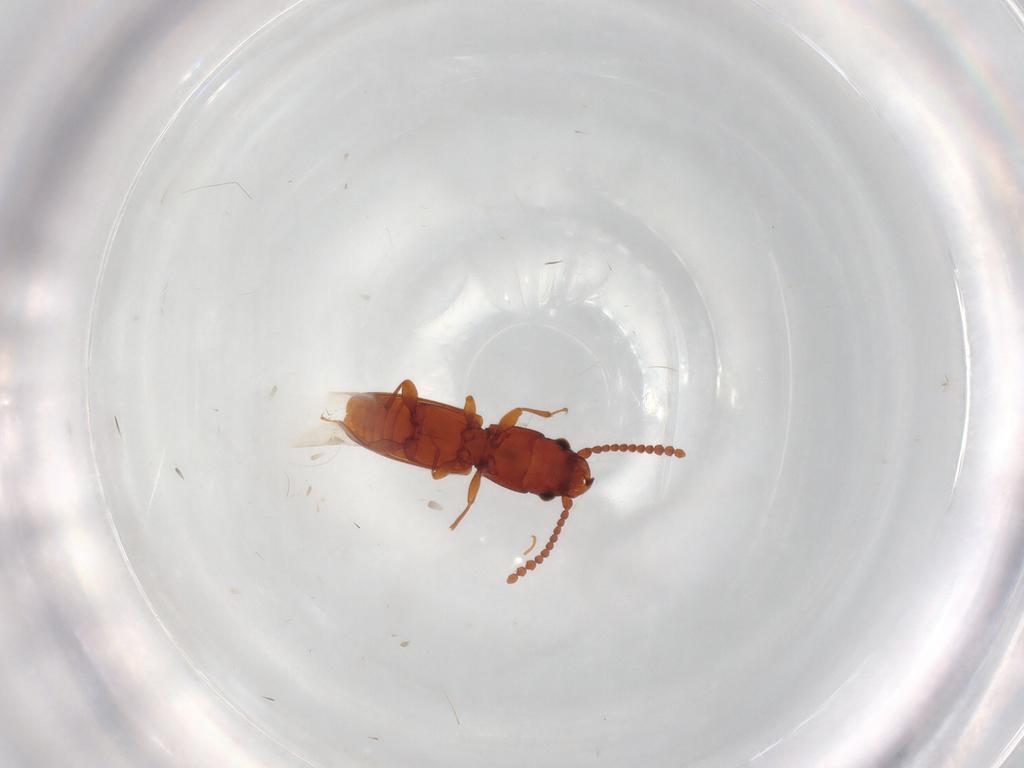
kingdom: Animalia
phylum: Arthropoda
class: Insecta
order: Coleoptera
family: Laemophloeidae
